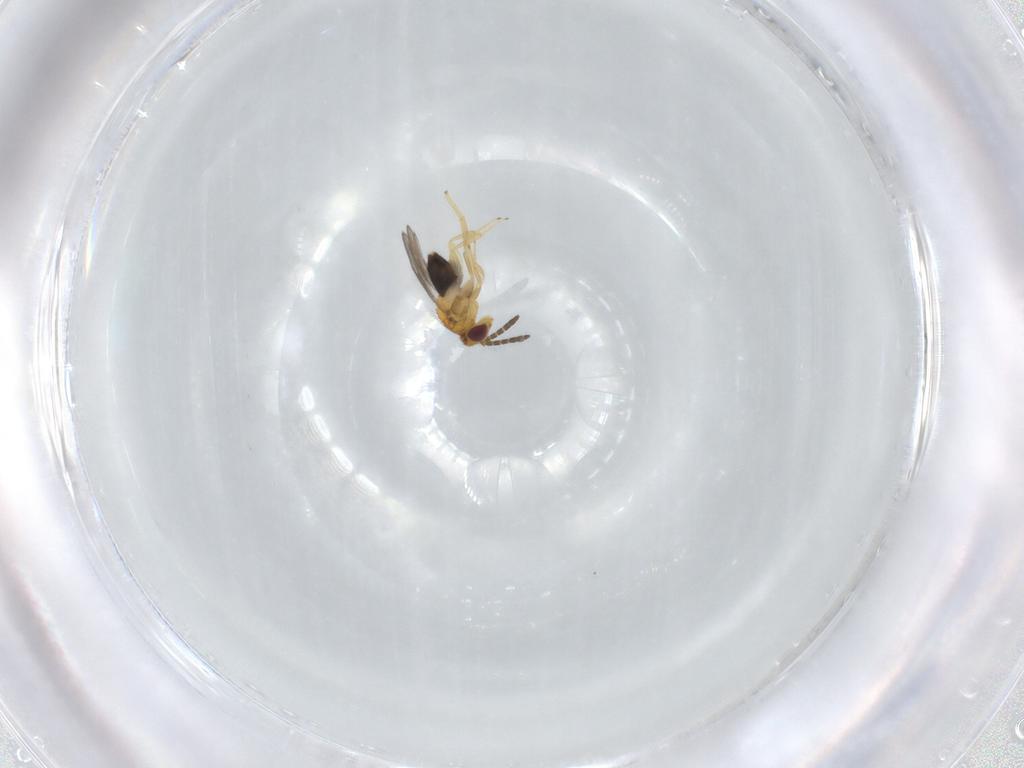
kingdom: Animalia
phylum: Arthropoda
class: Insecta
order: Hymenoptera
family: Aphelinidae
